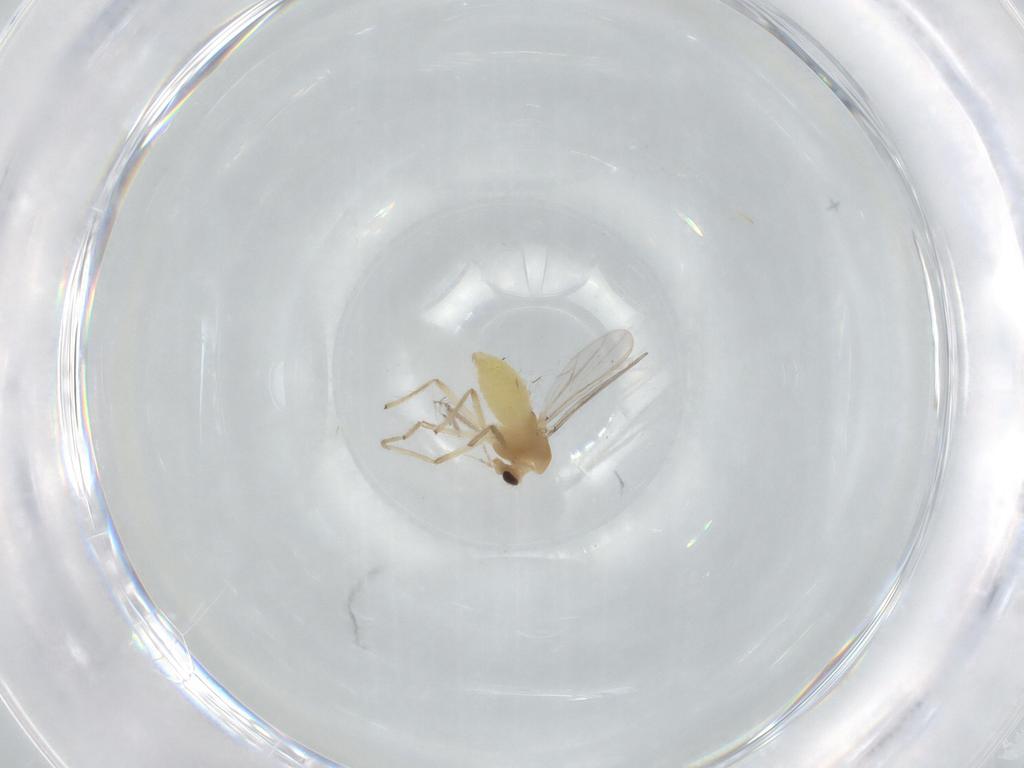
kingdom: Animalia
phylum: Arthropoda
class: Insecta
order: Diptera
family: Chironomidae
